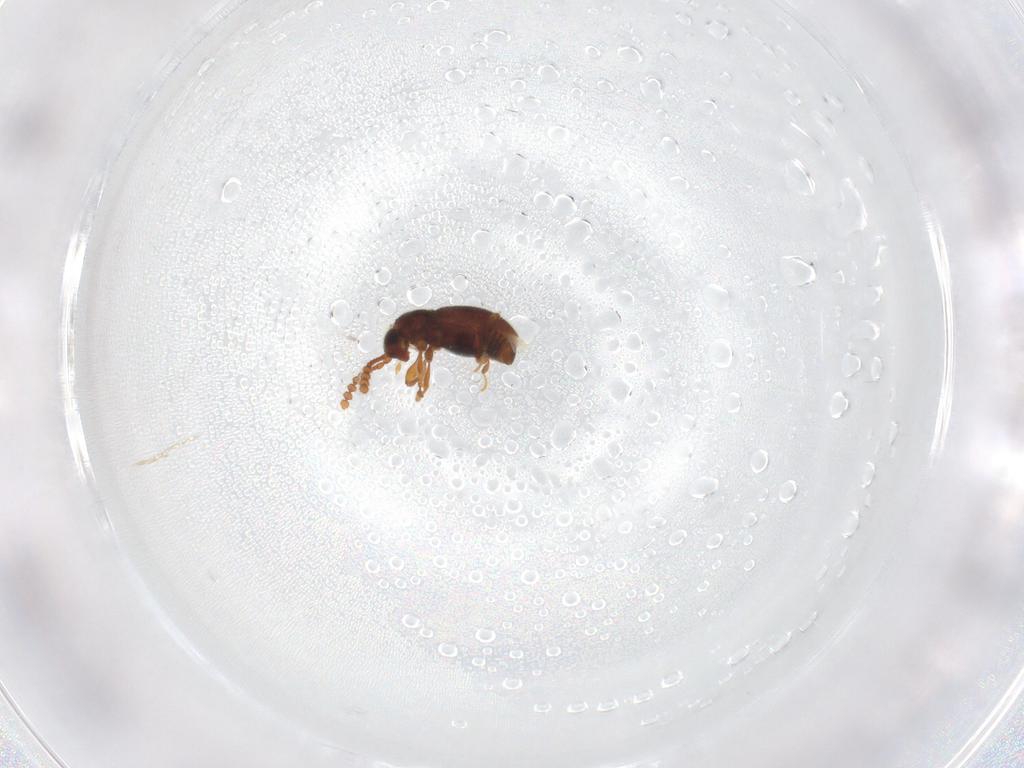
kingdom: Animalia
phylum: Arthropoda
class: Insecta
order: Coleoptera
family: Staphylinidae
